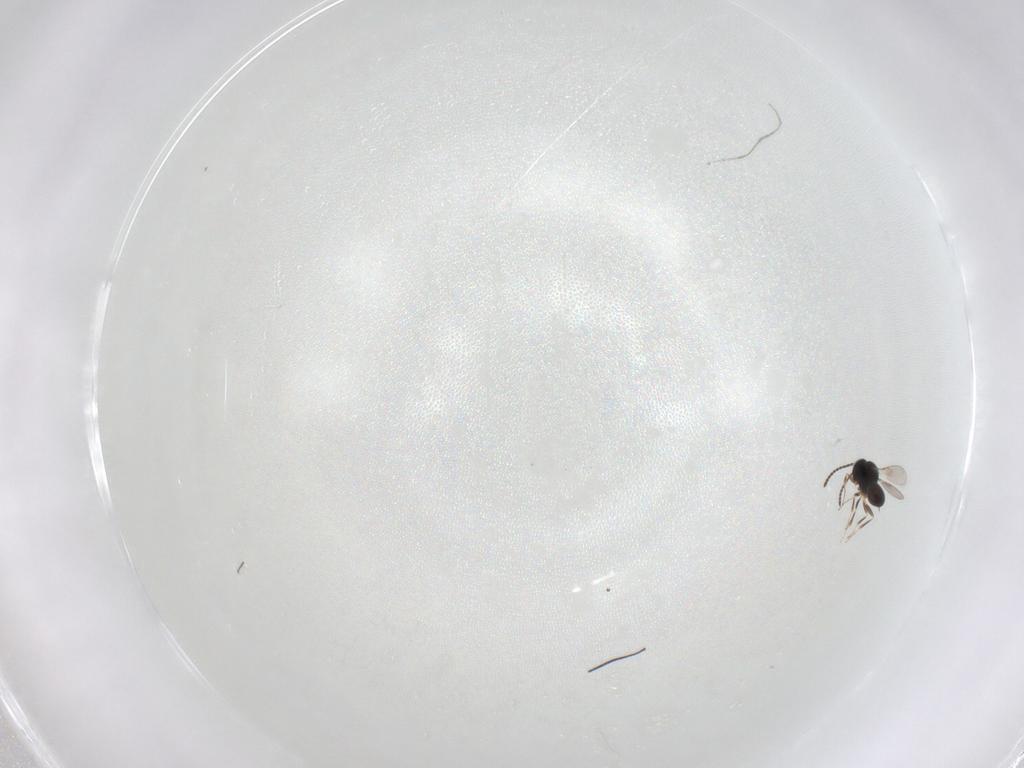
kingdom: Animalia
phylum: Arthropoda
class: Insecta
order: Hymenoptera
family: Scelionidae
